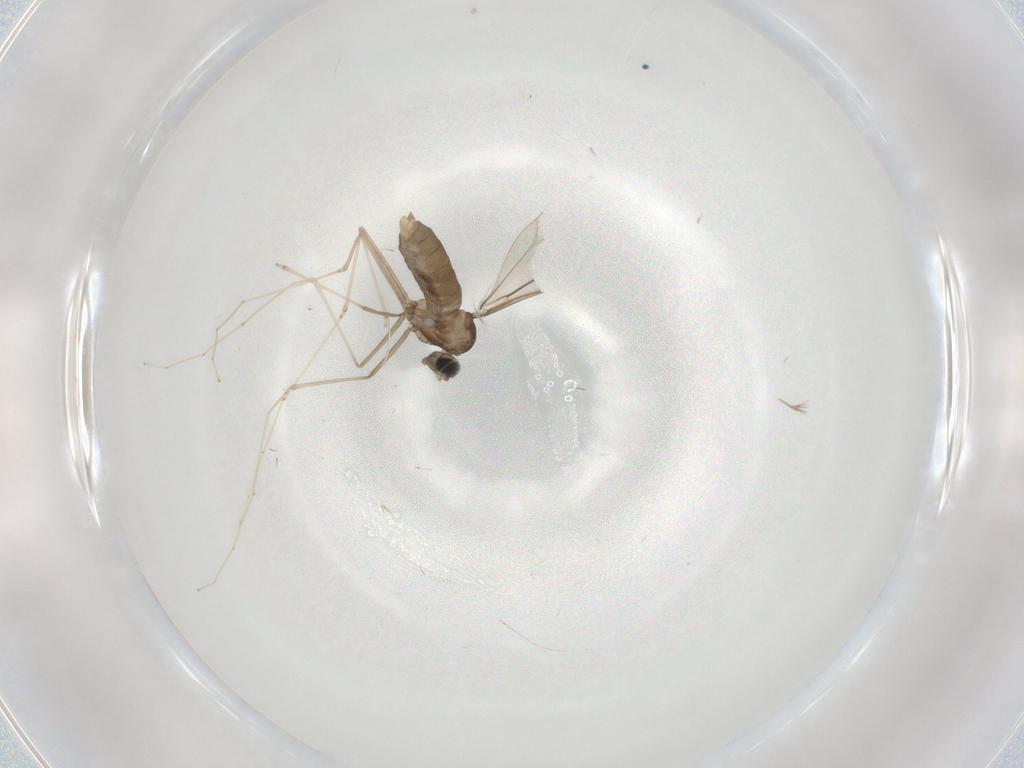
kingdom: Animalia
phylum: Arthropoda
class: Insecta
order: Diptera
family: Cecidomyiidae
